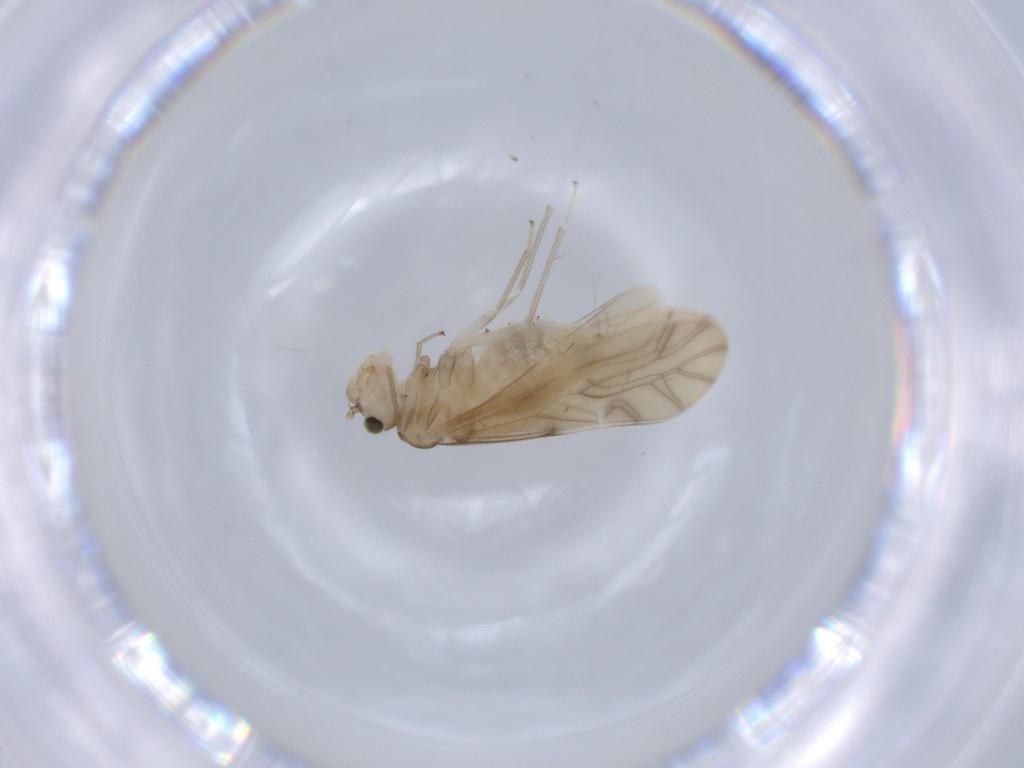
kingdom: Animalia
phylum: Arthropoda
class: Insecta
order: Psocodea
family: Caeciliusidae
